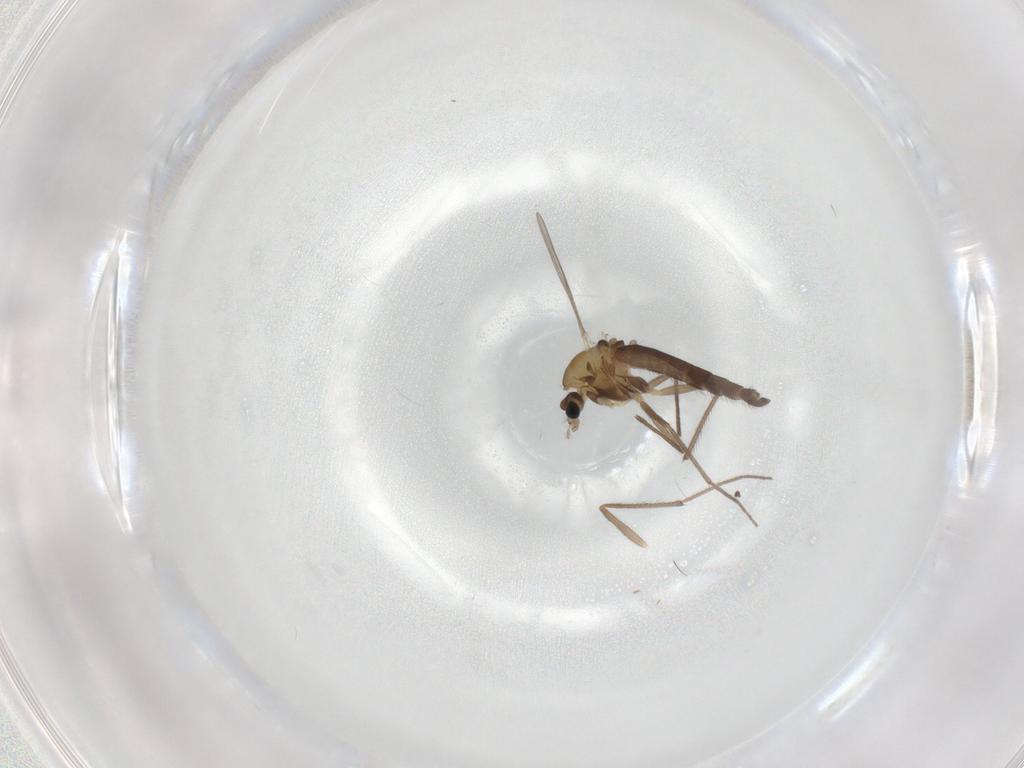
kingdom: Animalia
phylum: Arthropoda
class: Insecta
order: Diptera
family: Chironomidae
